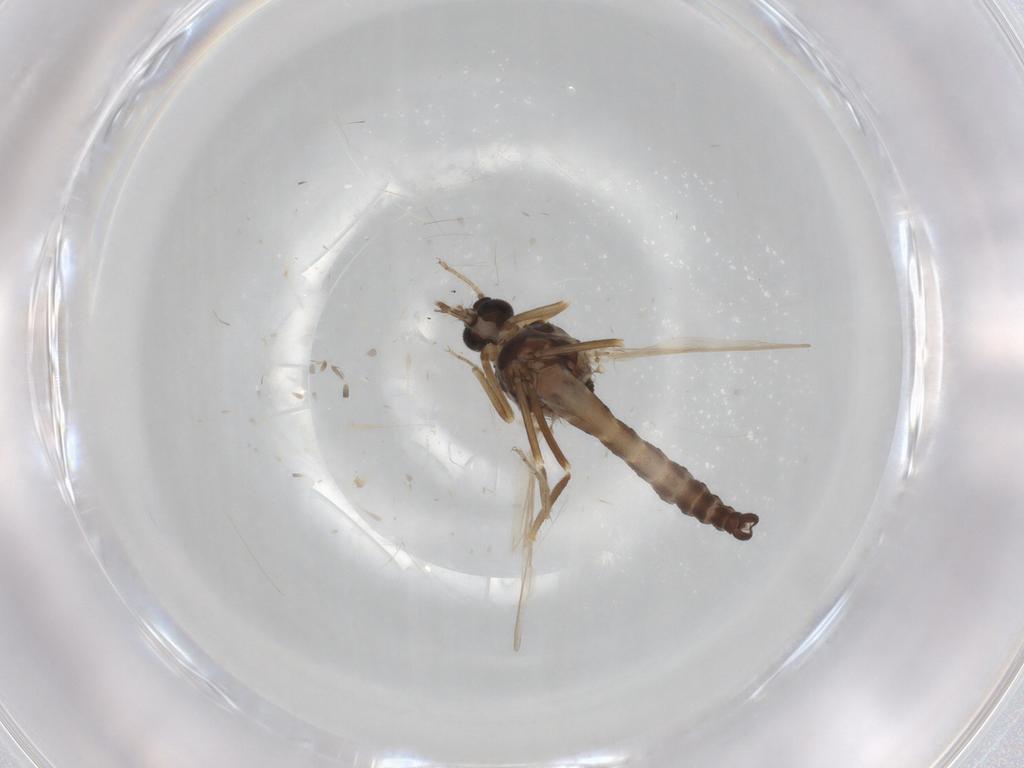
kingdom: Animalia
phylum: Arthropoda
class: Insecta
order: Diptera
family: Ceratopogonidae
